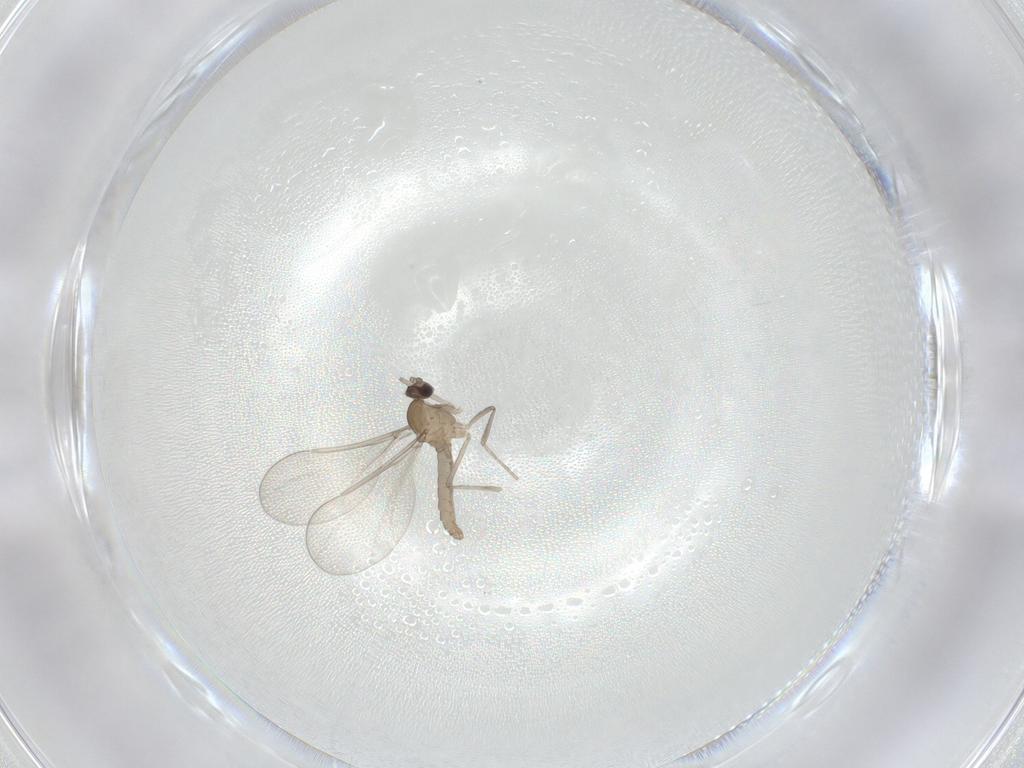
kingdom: Animalia
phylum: Arthropoda
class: Insecta
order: Diptera
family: Cecidomyiidae
